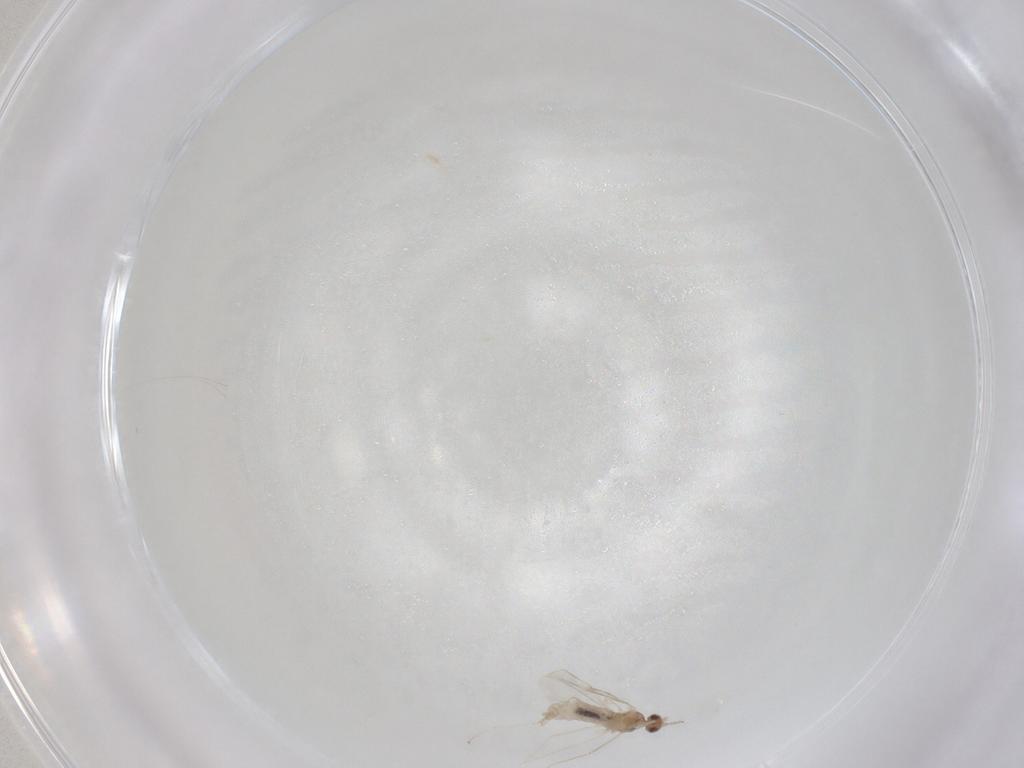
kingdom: Animalia
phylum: Arthropoda
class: Insecta
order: Diptera
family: Cecidomyiidae
